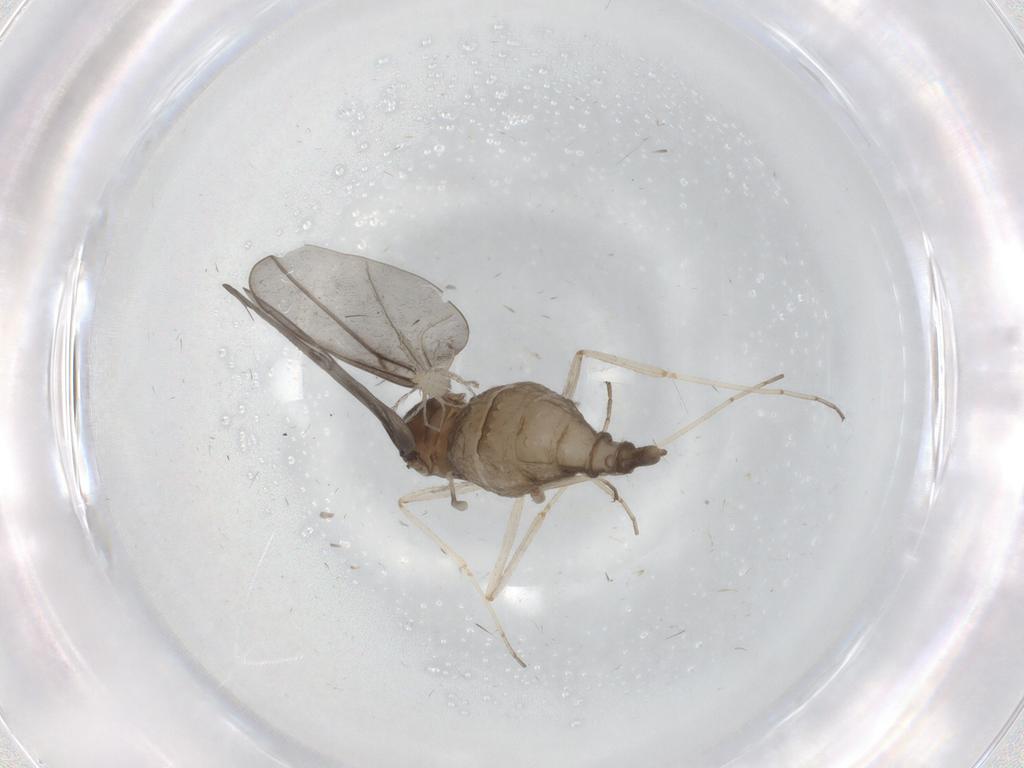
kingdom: Animalia
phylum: Arthropoda
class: Insecta
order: Diptera
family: Cecidomyiidae
